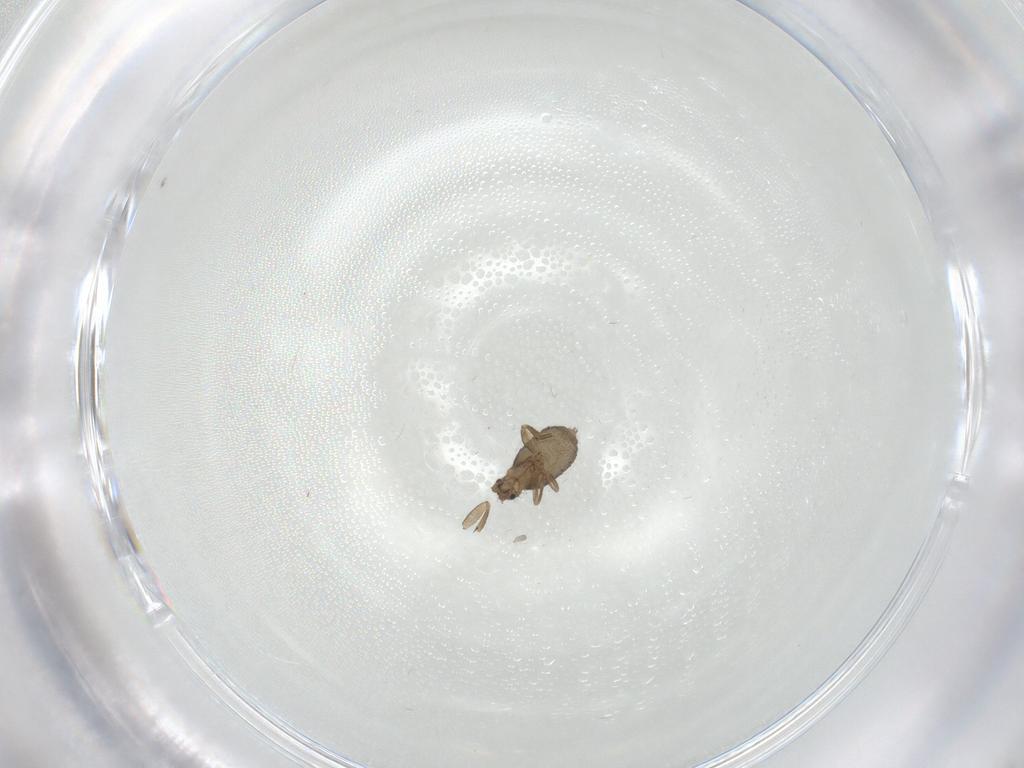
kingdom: Animalia
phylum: Arthropoda
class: Insecta
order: Diptera
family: Phoridae
